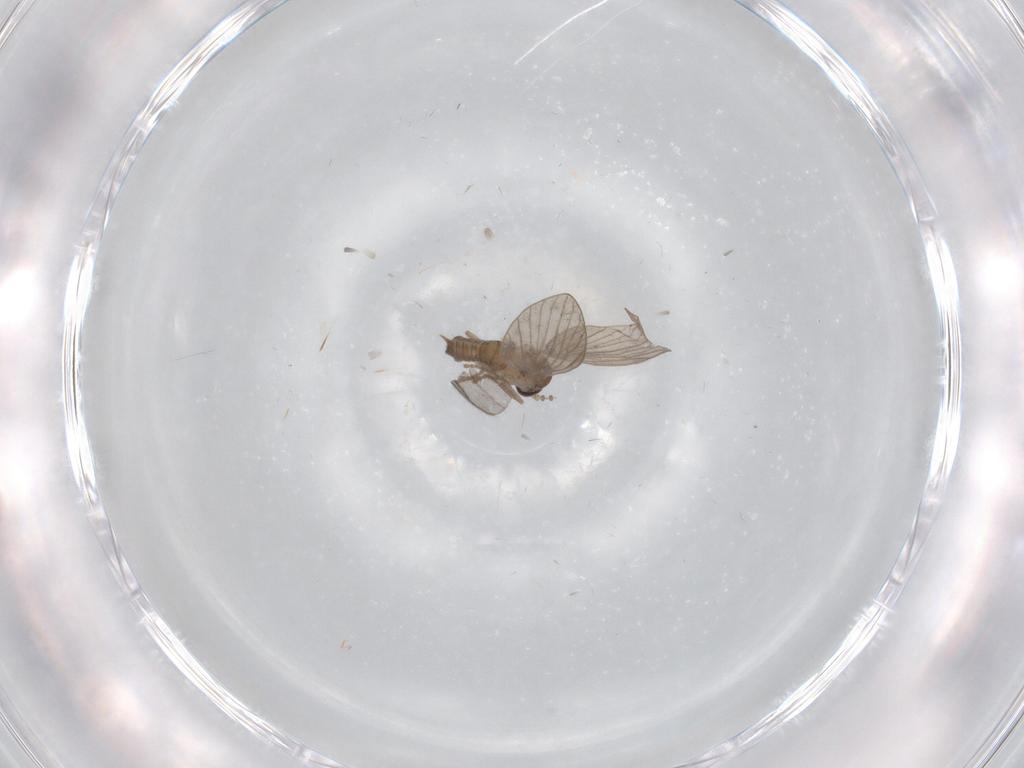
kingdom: Animalia
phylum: Arthropoda
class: Insecta
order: Diptera
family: Psychodidae
